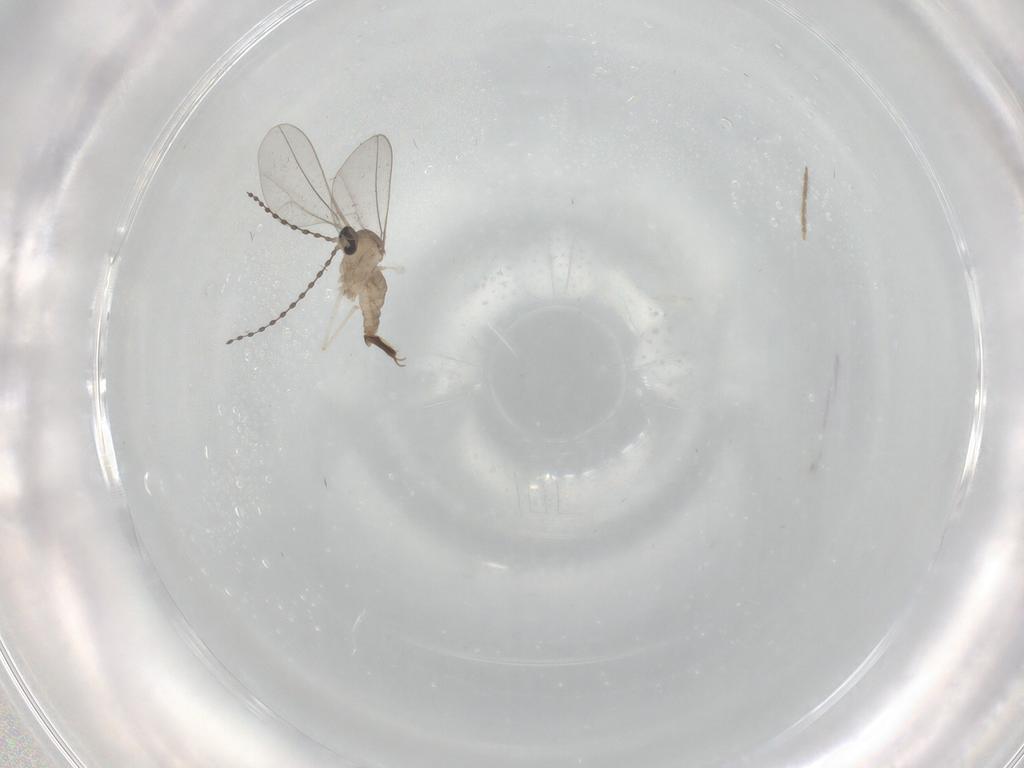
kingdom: Animalia
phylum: Arthropoda
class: Insecta
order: Diptera
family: Cecidomyiidae
